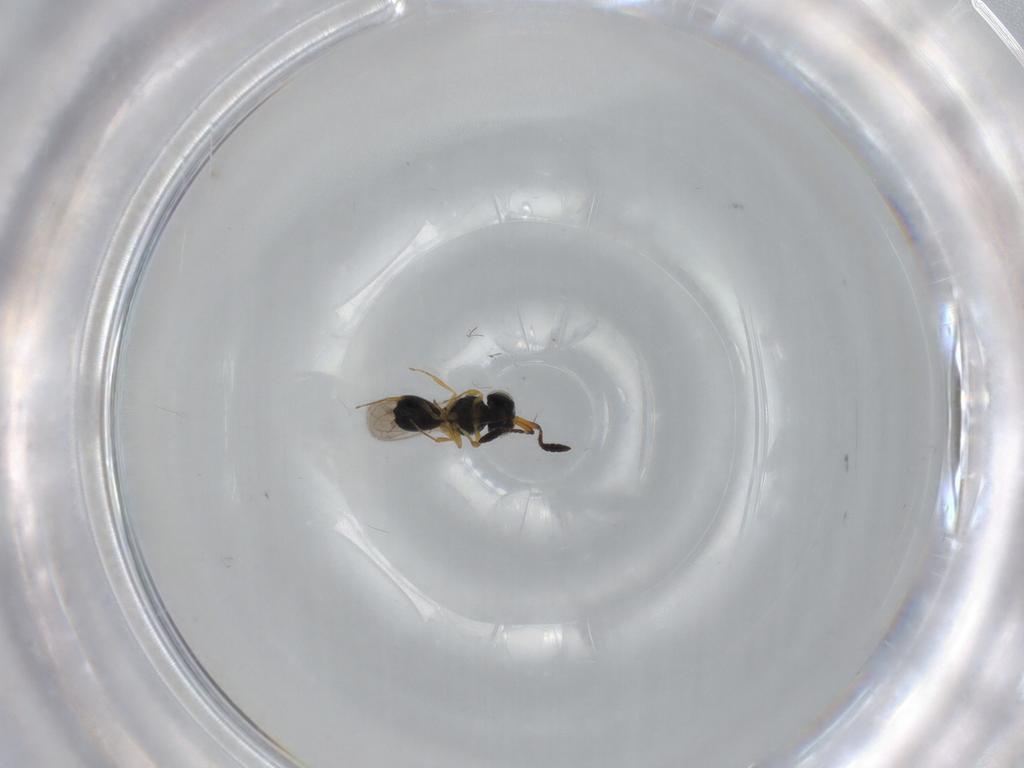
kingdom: Animalia
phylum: Arthropoda
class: Insecta
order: Hymenoptera
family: Scelionidae
